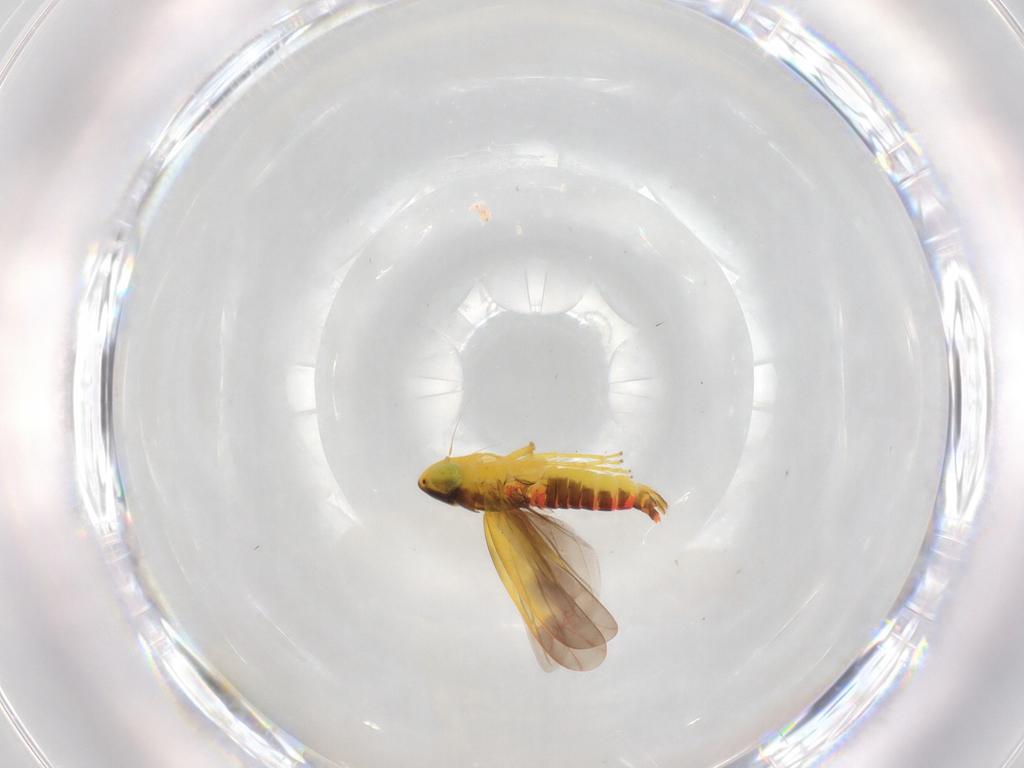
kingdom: Animalia
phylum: Arthropoda
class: Insecta
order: Hemiptera
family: Cicadellidae
